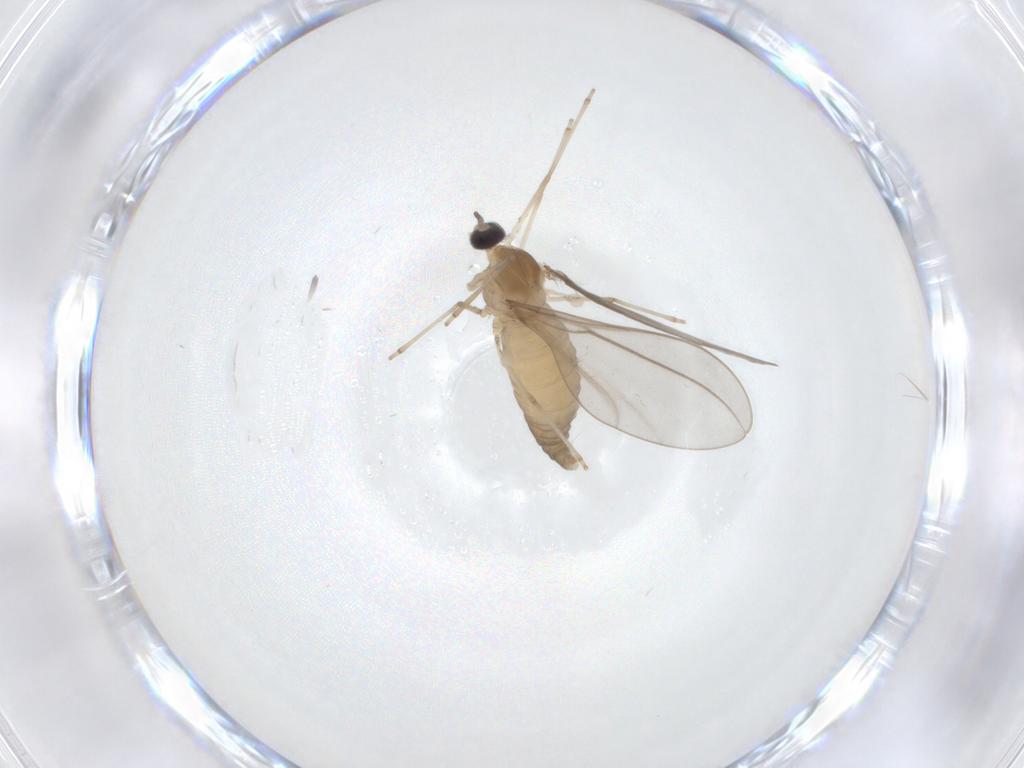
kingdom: Animalia
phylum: Arthropoda
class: Insecta
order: Diptera
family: Cecidomyiidae
